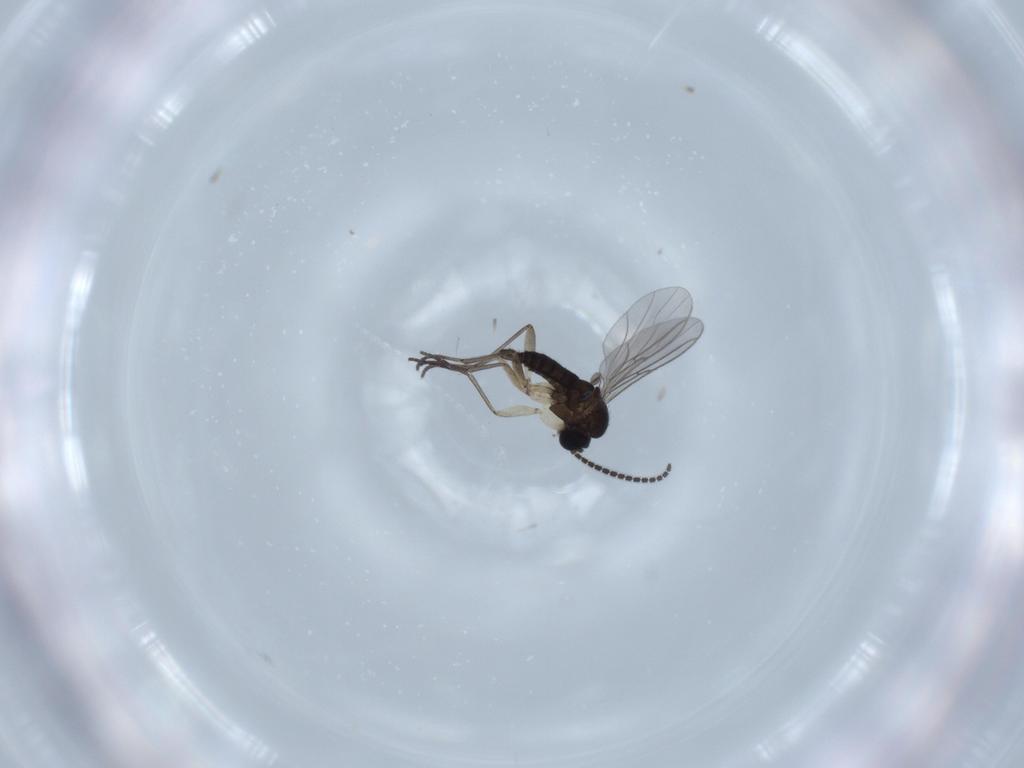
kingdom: Animalia
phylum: Arthropoda
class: Insecta
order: Diptera
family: Sciaridae
